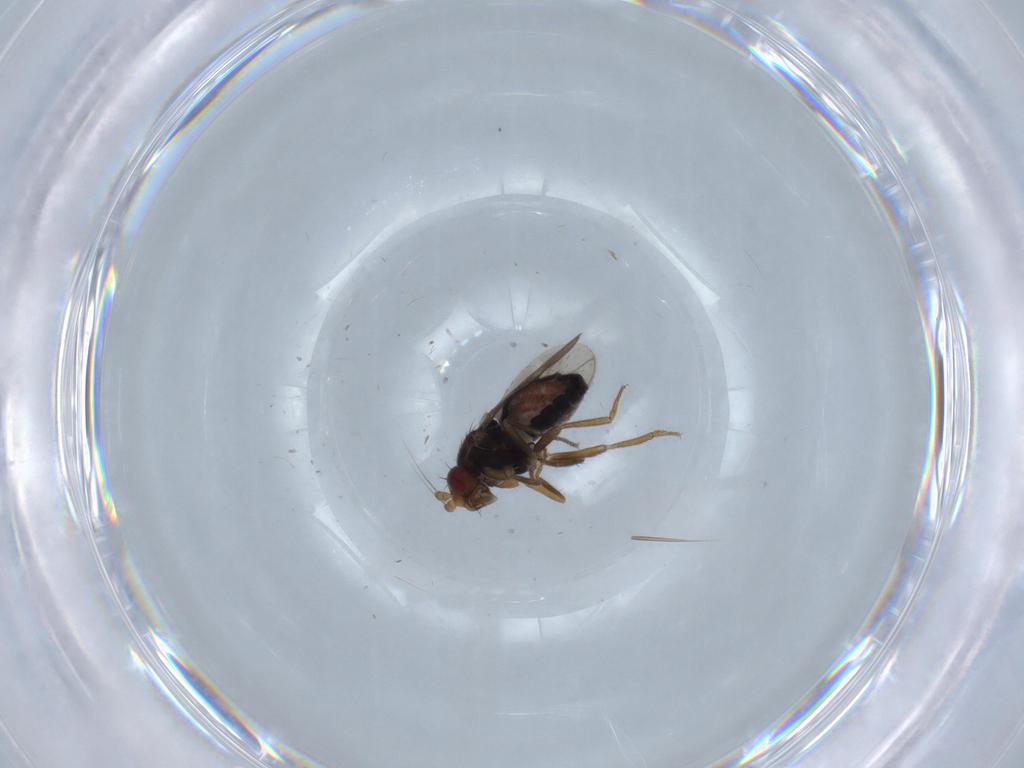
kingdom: Animalia
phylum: Arthropoda
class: Insecta
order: Diptera
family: Sphaeroceridae
